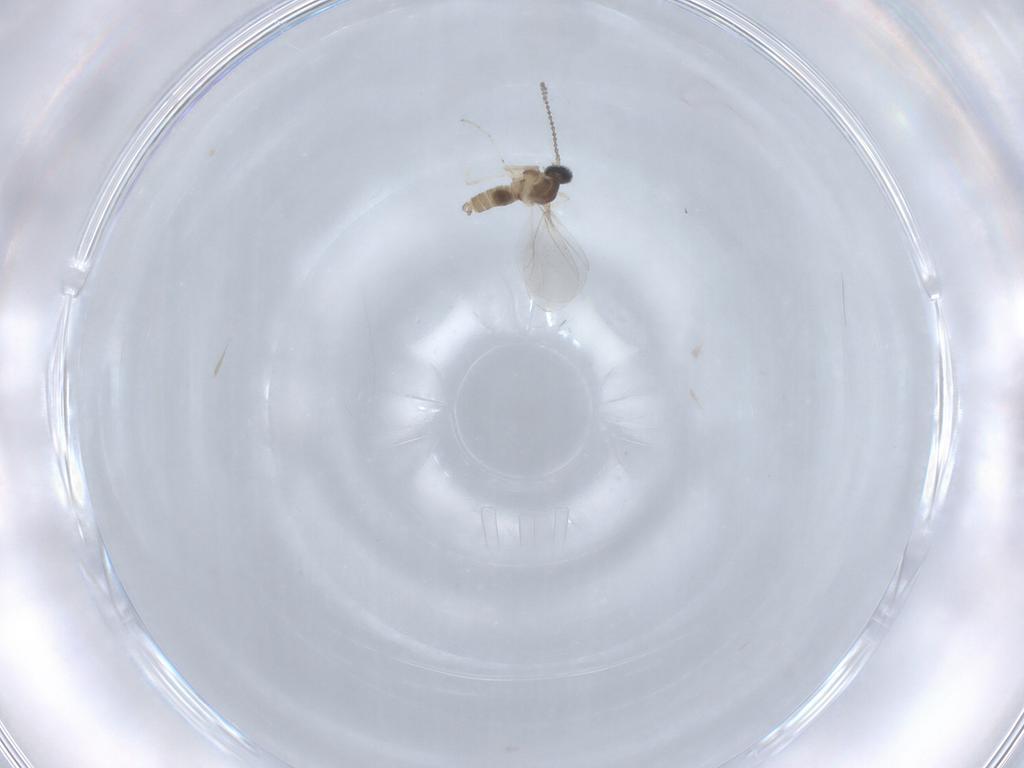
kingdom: Animalia
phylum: Arthropoda
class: Insecta
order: Diptera
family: Cecidomyiidae
